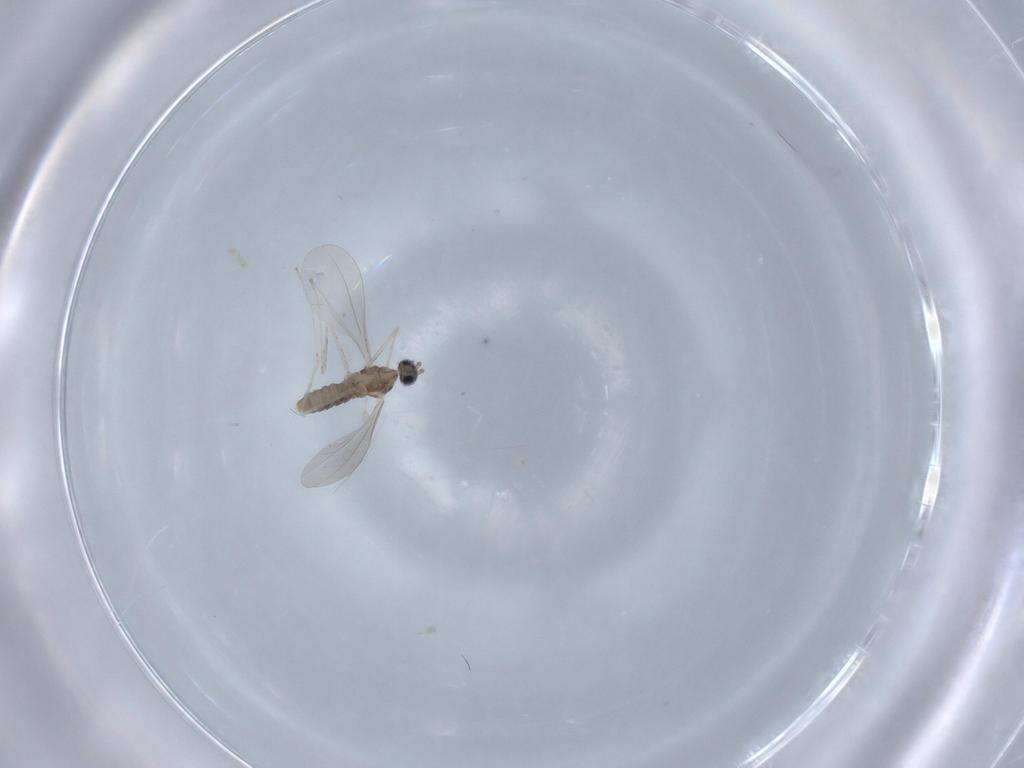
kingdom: Animalia
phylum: Arthropoda
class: Insecta
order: Diptera
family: Cecidomyiidae
